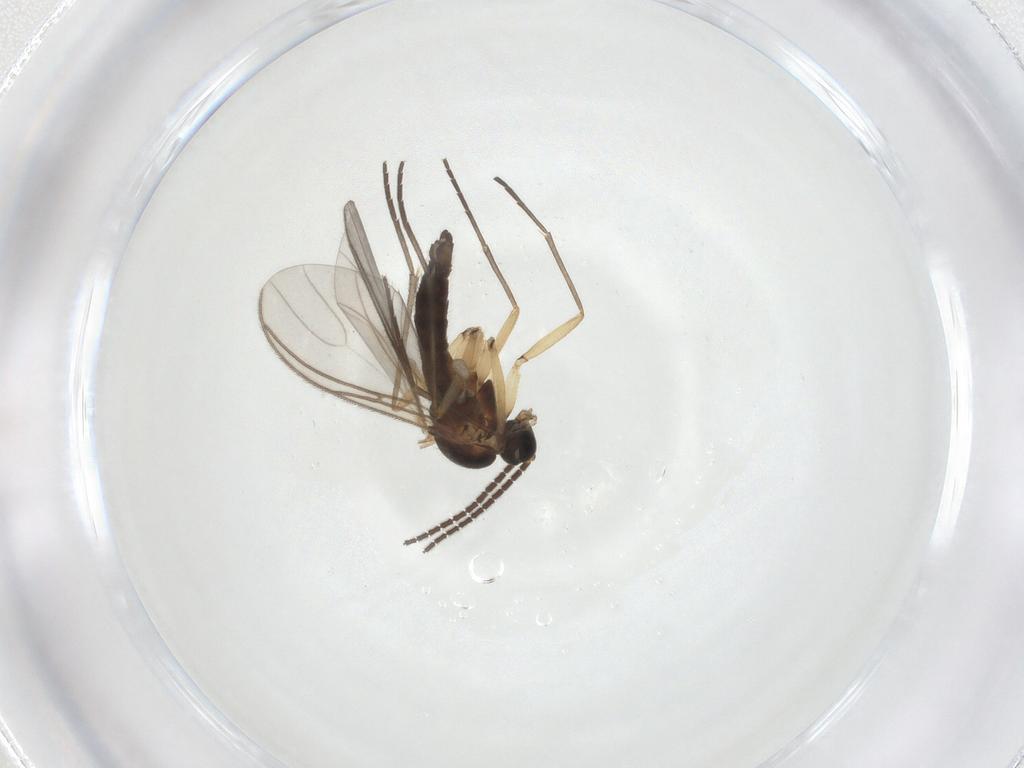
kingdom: Animalia
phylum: Arthropoda
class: Insecta
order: Diptera
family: Sciaridae
